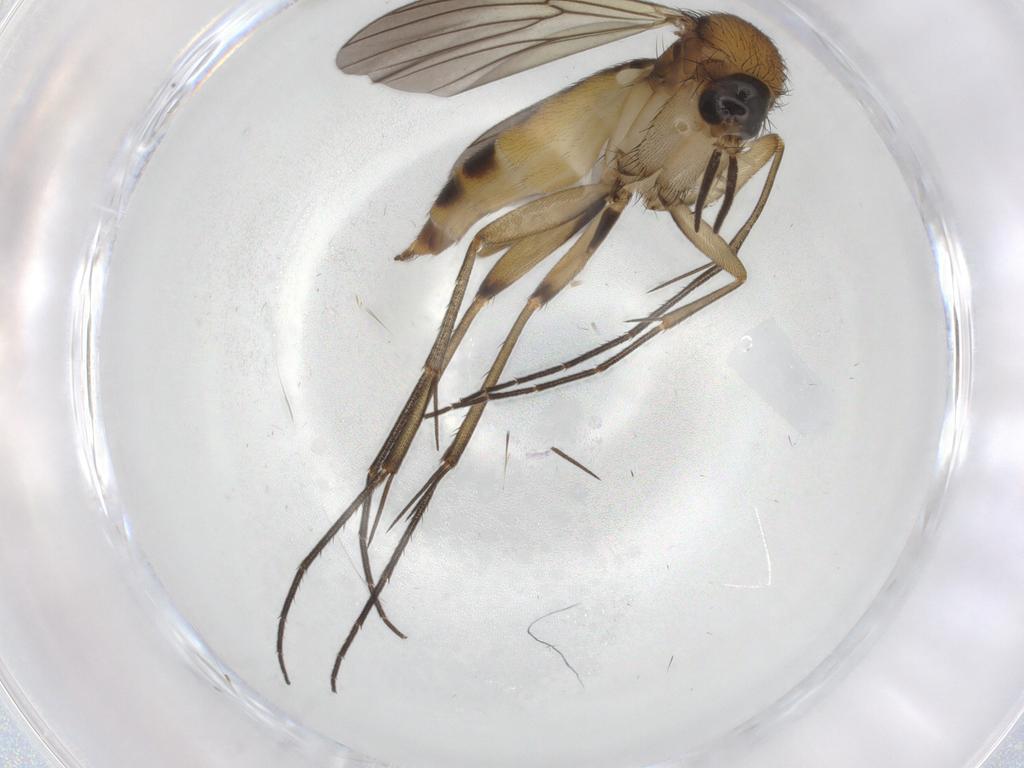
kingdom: Animalia
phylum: Arthropoda
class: Insecta
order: Diptera
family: Mycetophilidae
